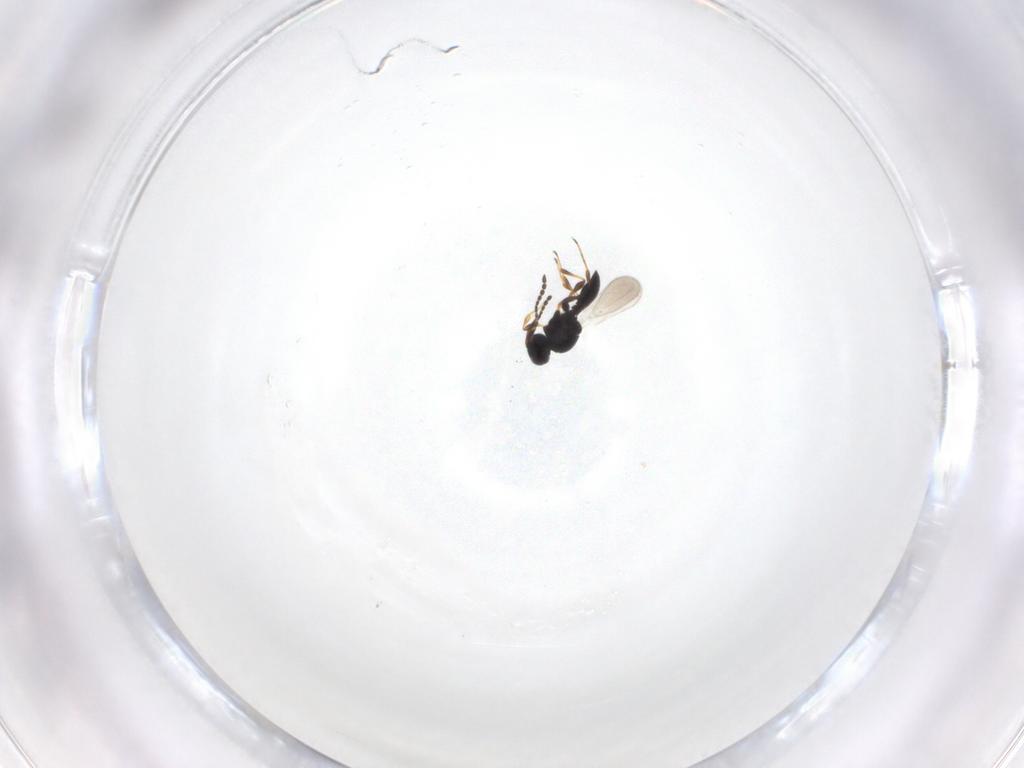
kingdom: Animalia
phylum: Arthropoda
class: Insecta
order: Hymenoptera
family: Platygastridae
